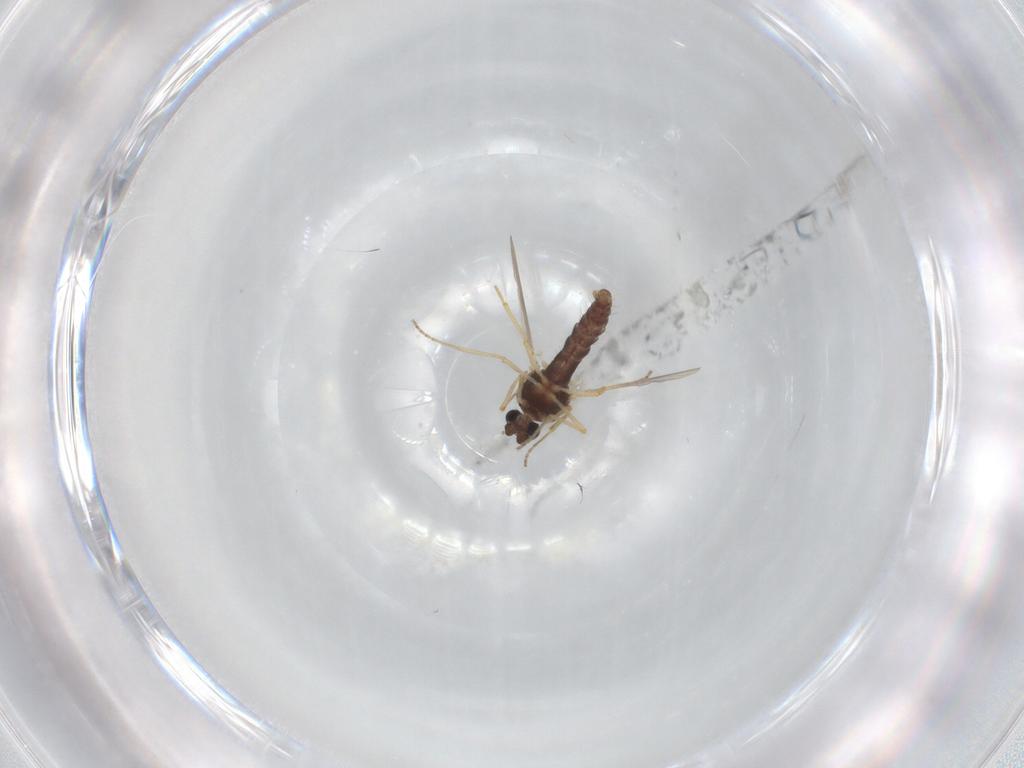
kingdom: Animalia
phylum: Arthropoda
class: Insecta
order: Diptera
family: Ceratopogonidae
